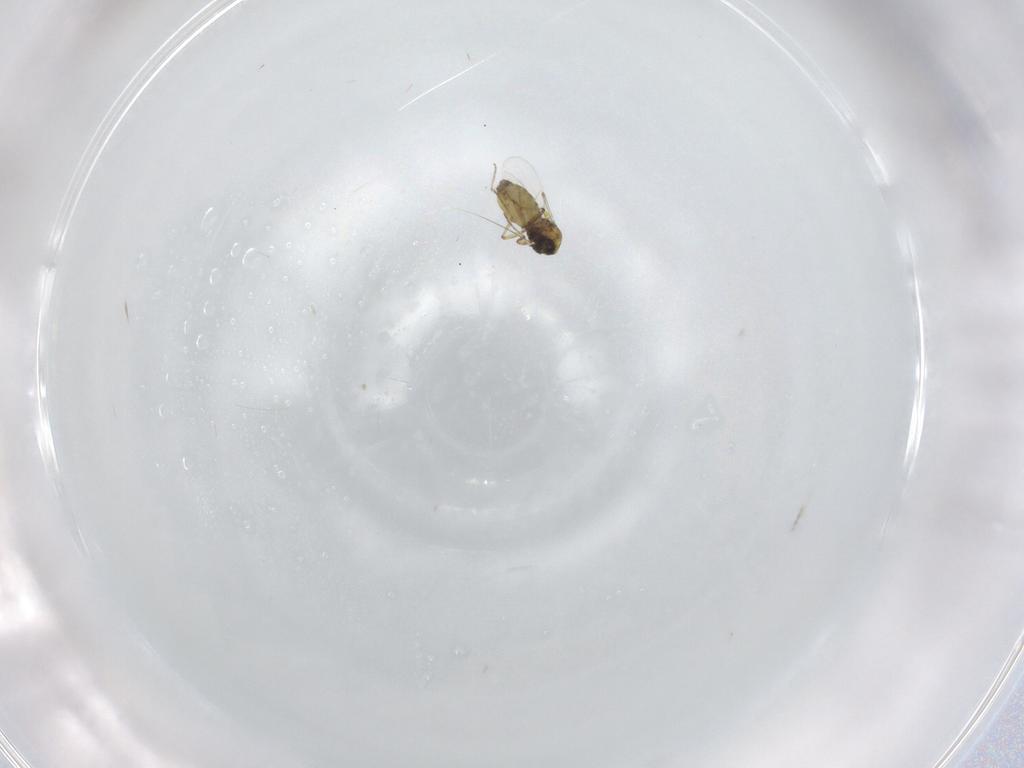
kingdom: Animalia
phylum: Arthropoda
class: Insecta
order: Diptera
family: Ceratopogonidae
